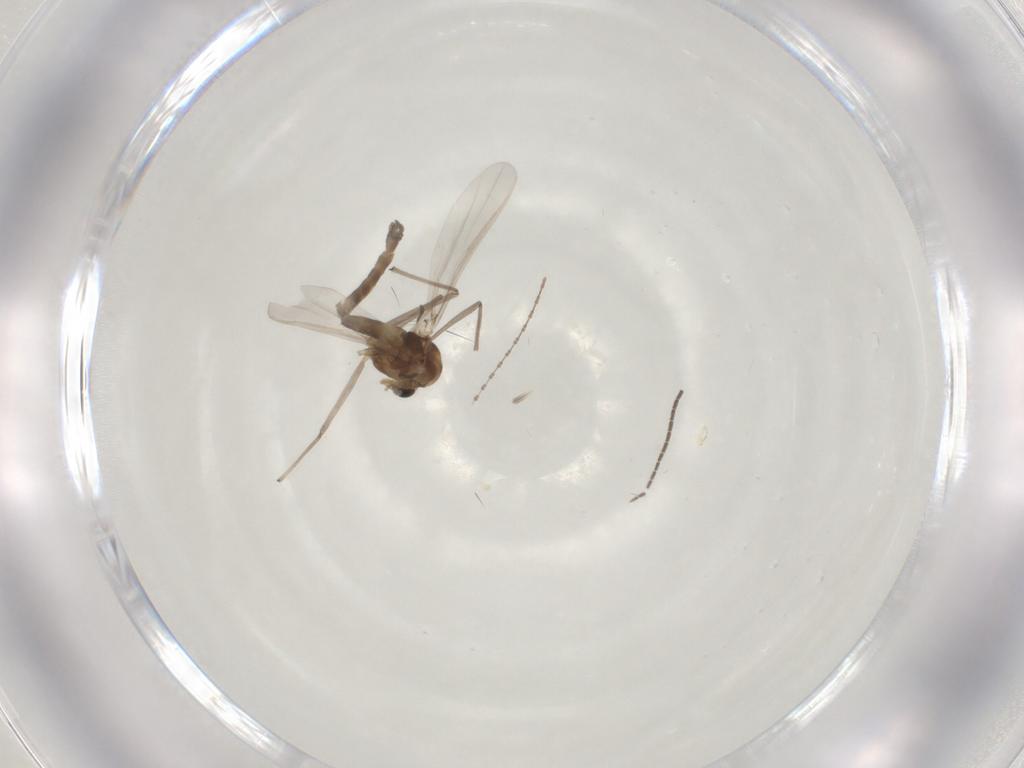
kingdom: Animalia
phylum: Arthropoda
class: Insecta
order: Diptera
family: Chironomidae
